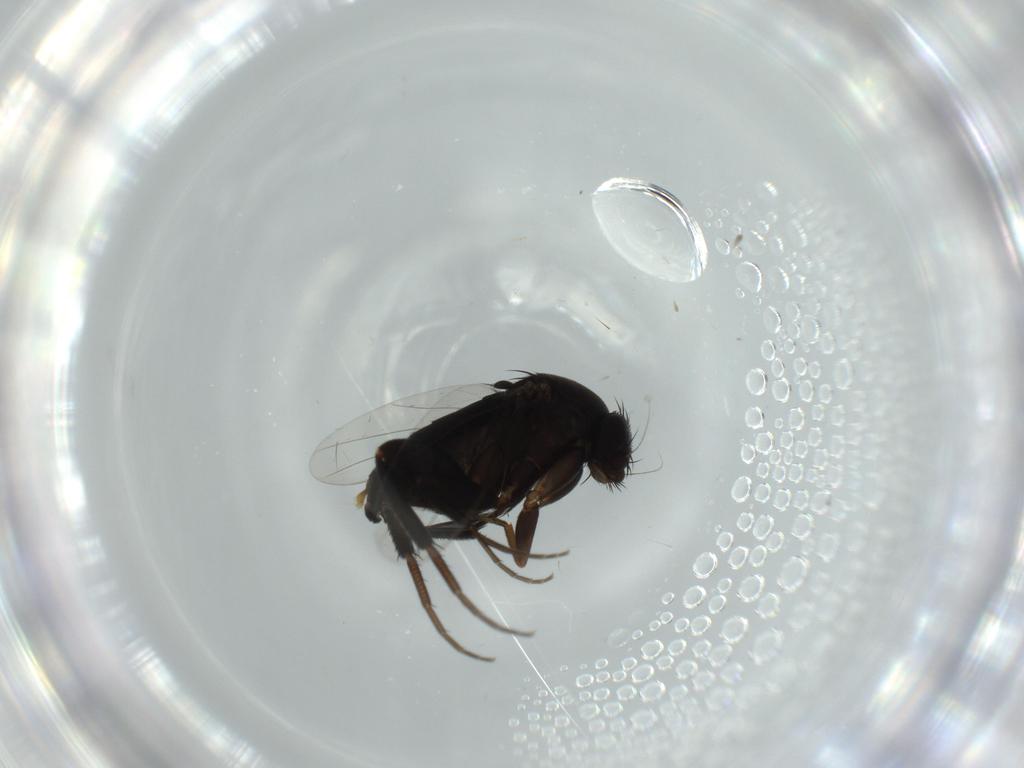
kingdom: Animalia
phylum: Arthropoda
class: Insecta
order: Diptera
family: Phoridae
